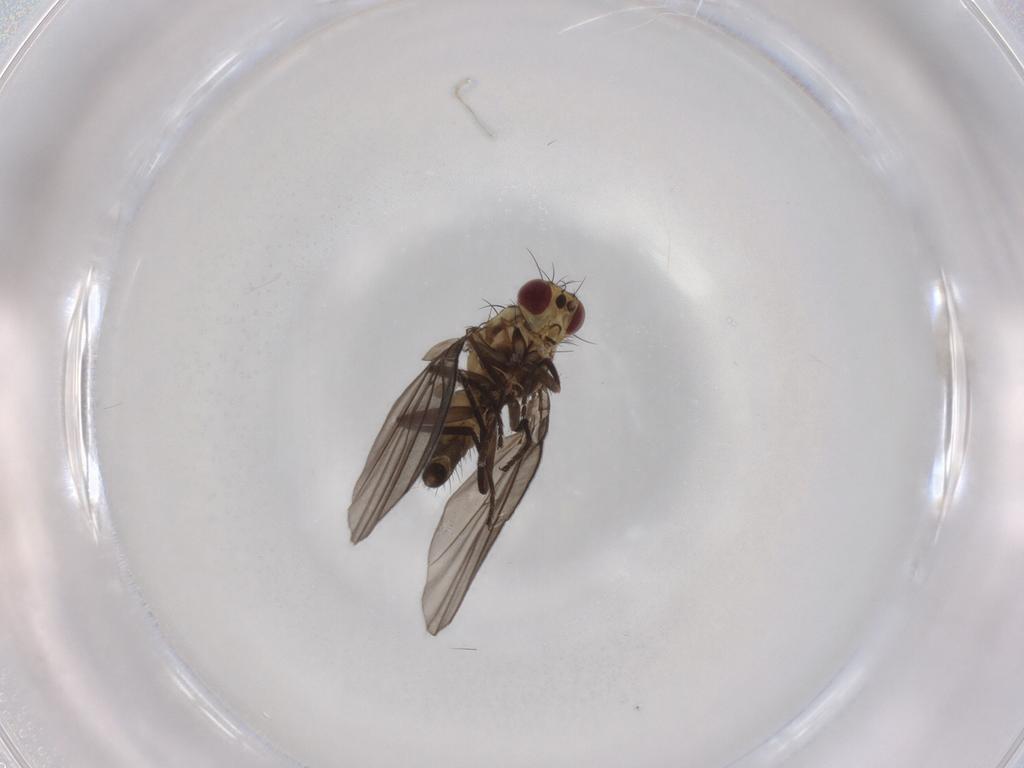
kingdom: Animalia
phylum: Arthropoda
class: Insecta
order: Diptera
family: Agromyzidae
